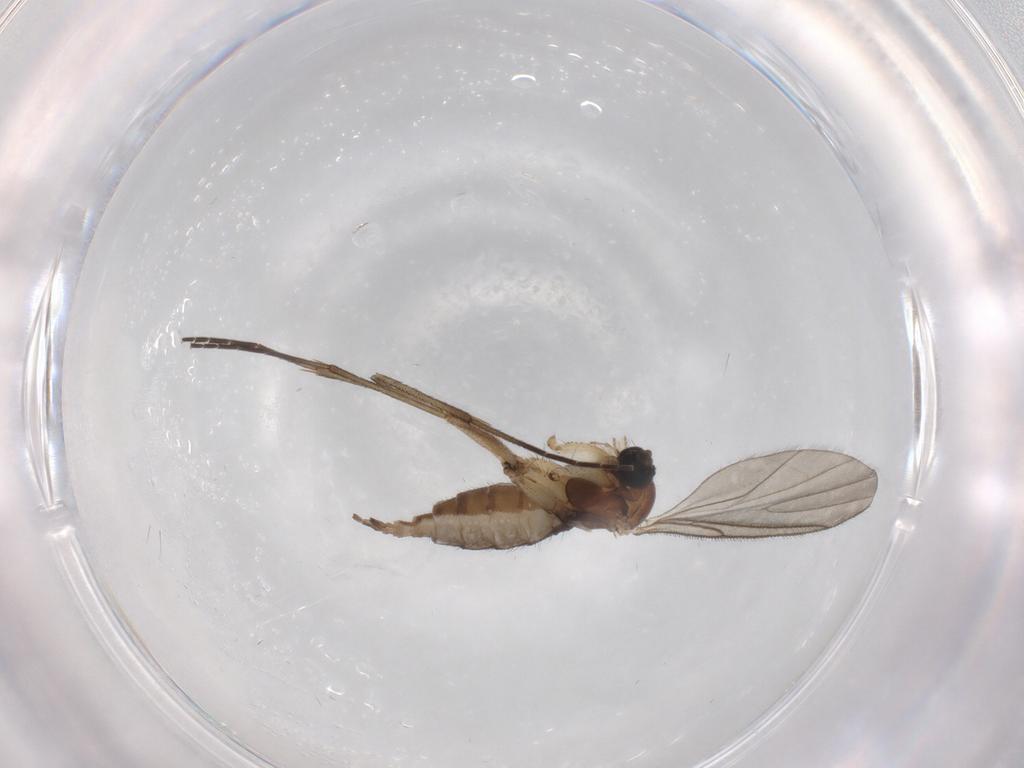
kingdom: Animalia
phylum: Arthropoda
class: Insecta
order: Diptera
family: Sciaridae
